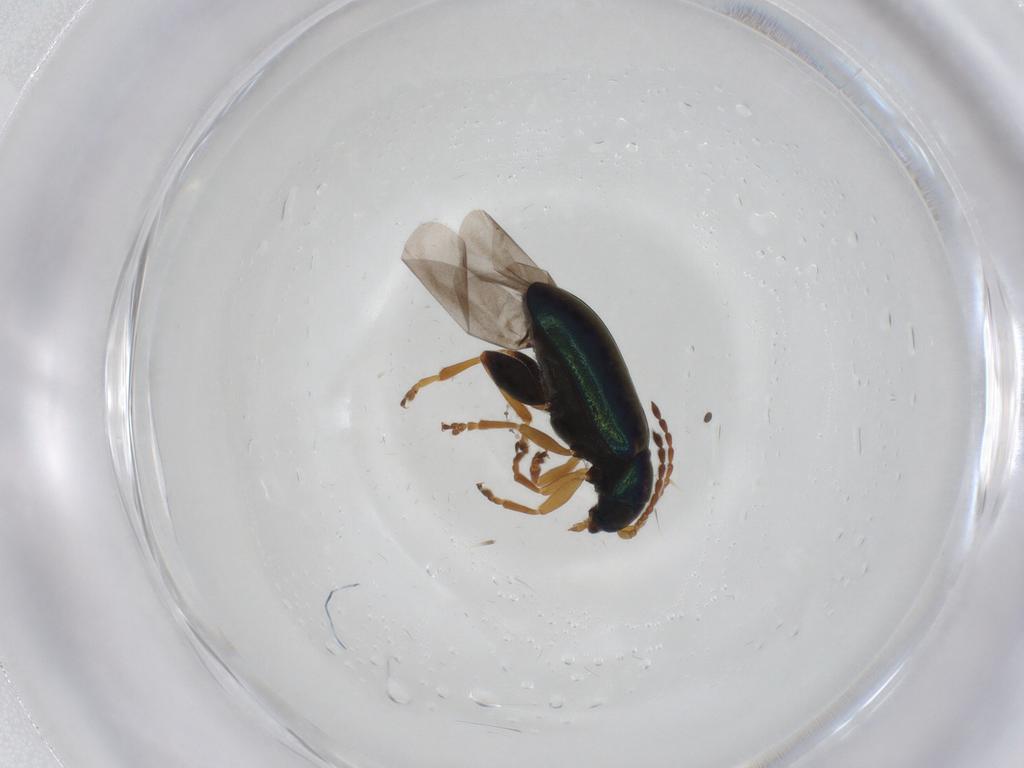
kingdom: Animalia
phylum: Arthropoda
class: Insecta
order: Coleoptera
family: Chrysomelidae
